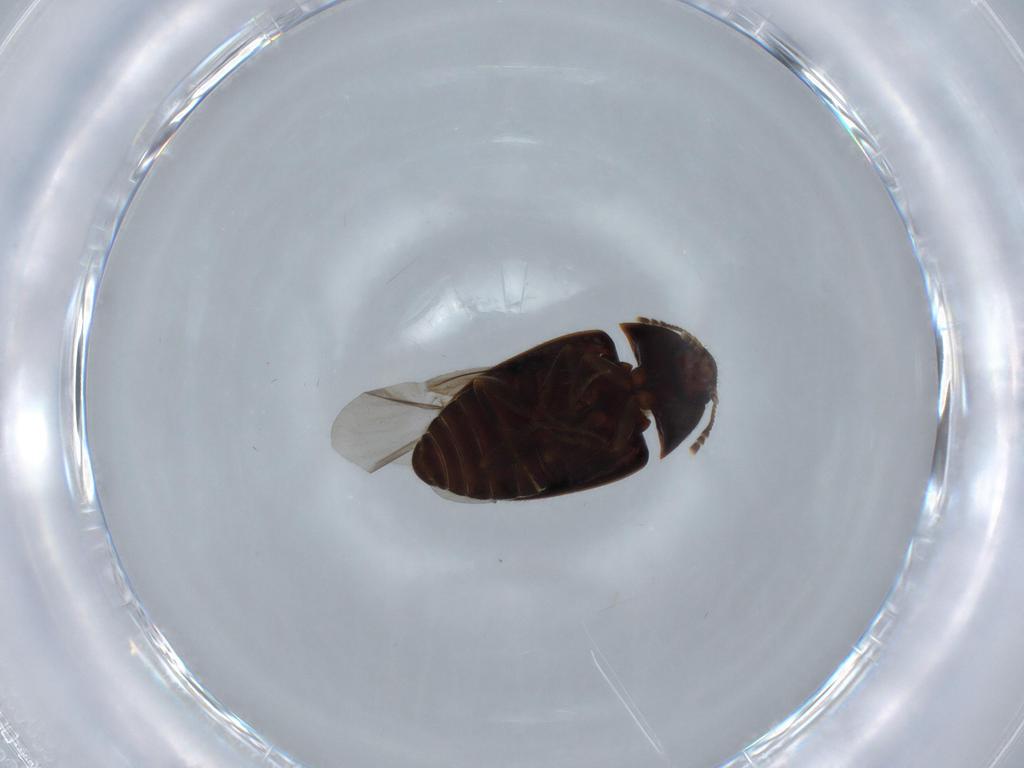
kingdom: Animalia
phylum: Arthropoda
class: Insecta
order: Coleoptera
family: Mycetophagidae
